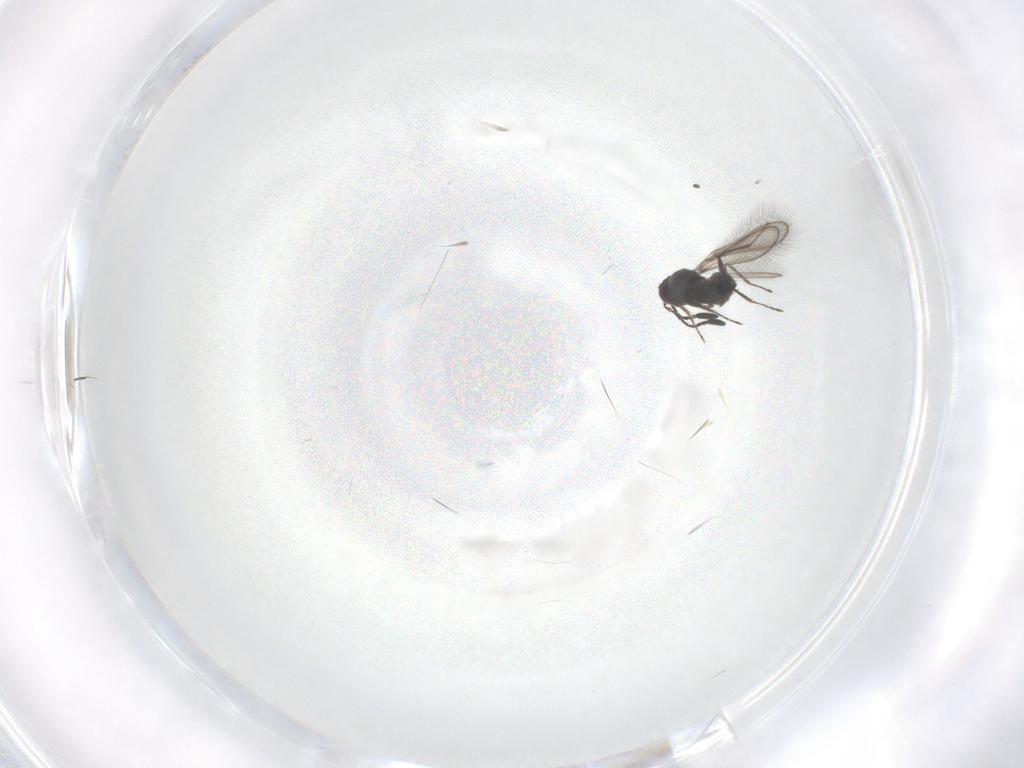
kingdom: Animalia
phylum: Arthropoda
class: Insecta
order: Hymenoptera
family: Mymaridae
